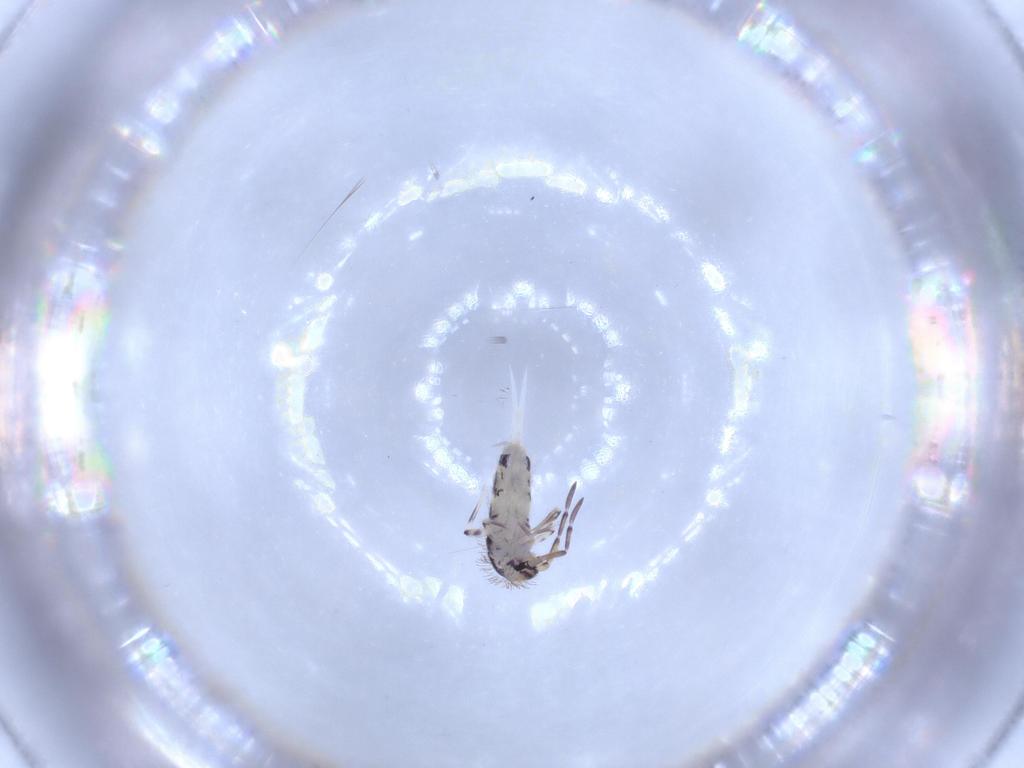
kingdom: Animalia
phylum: Arthropoda
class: Collembola
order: Entomobryomorpha
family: Entomobryidae
